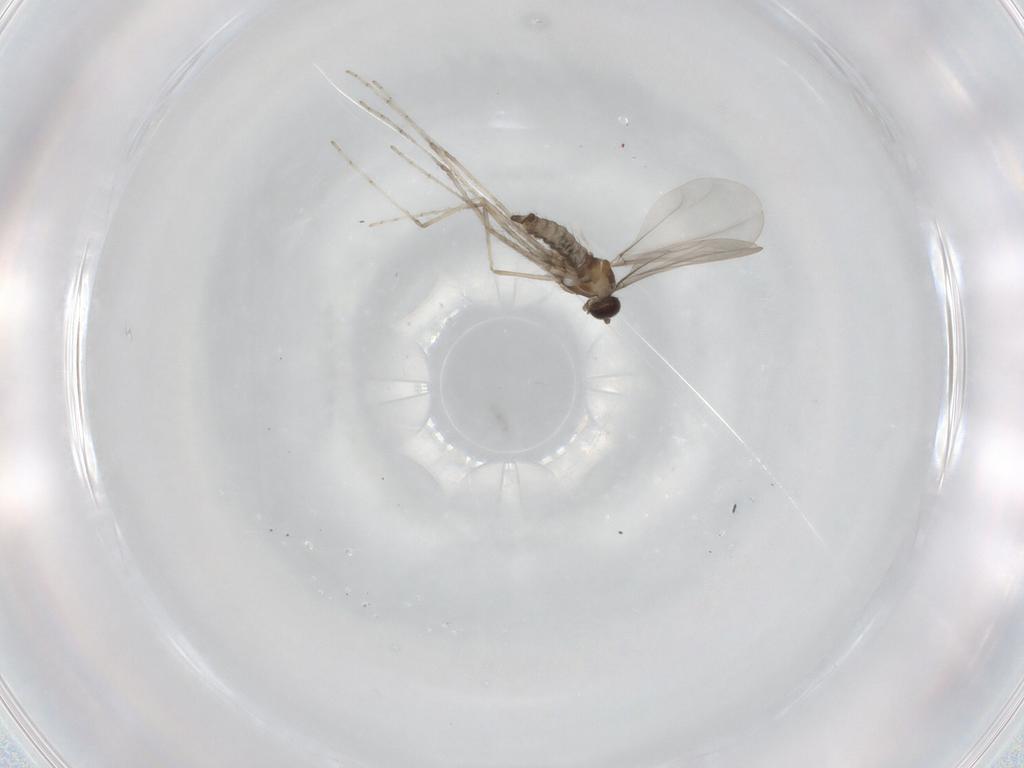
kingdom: Animalia
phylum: Arthropoda
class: Insecta
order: Diptera
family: Cecidomyiidae
